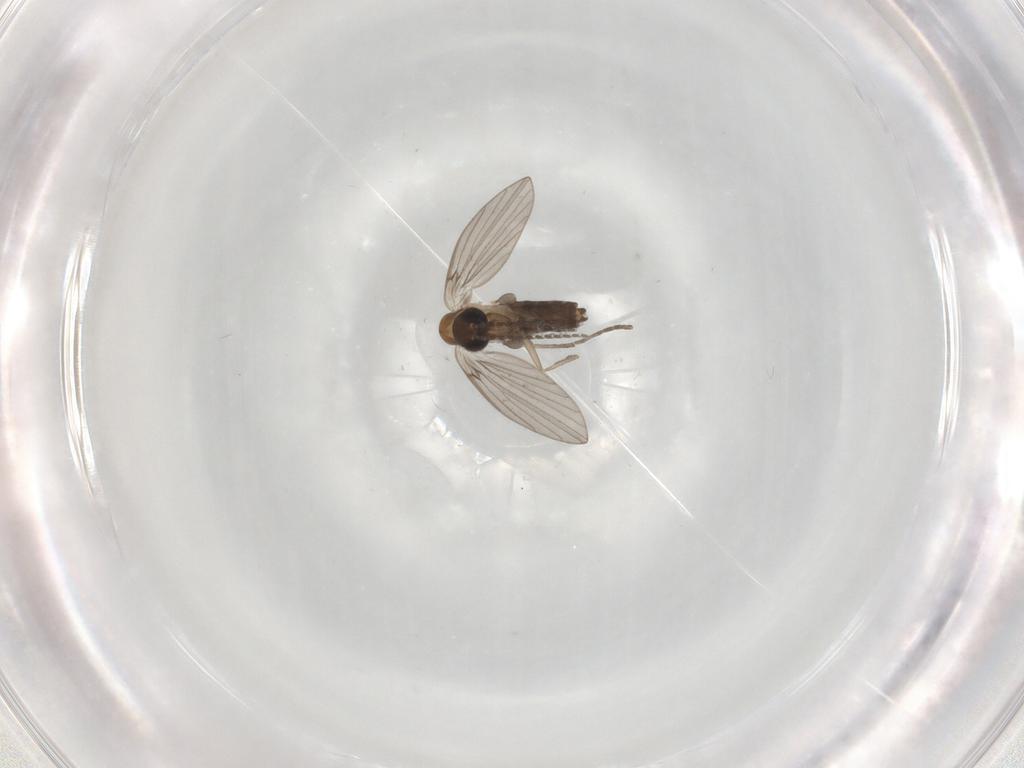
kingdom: Animalia
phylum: Arthropoda
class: Insecta
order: Diptera
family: Psychodidae
